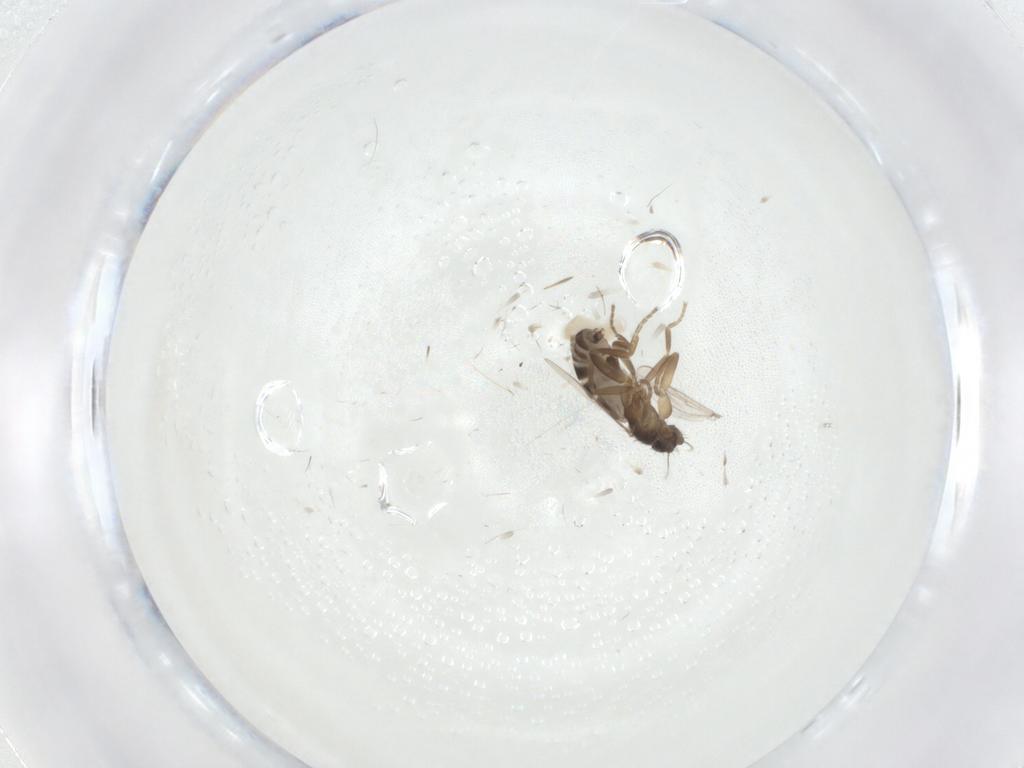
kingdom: Animalia
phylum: Arthropoda
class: Insecta
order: Diptera
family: Mycetophilidae
